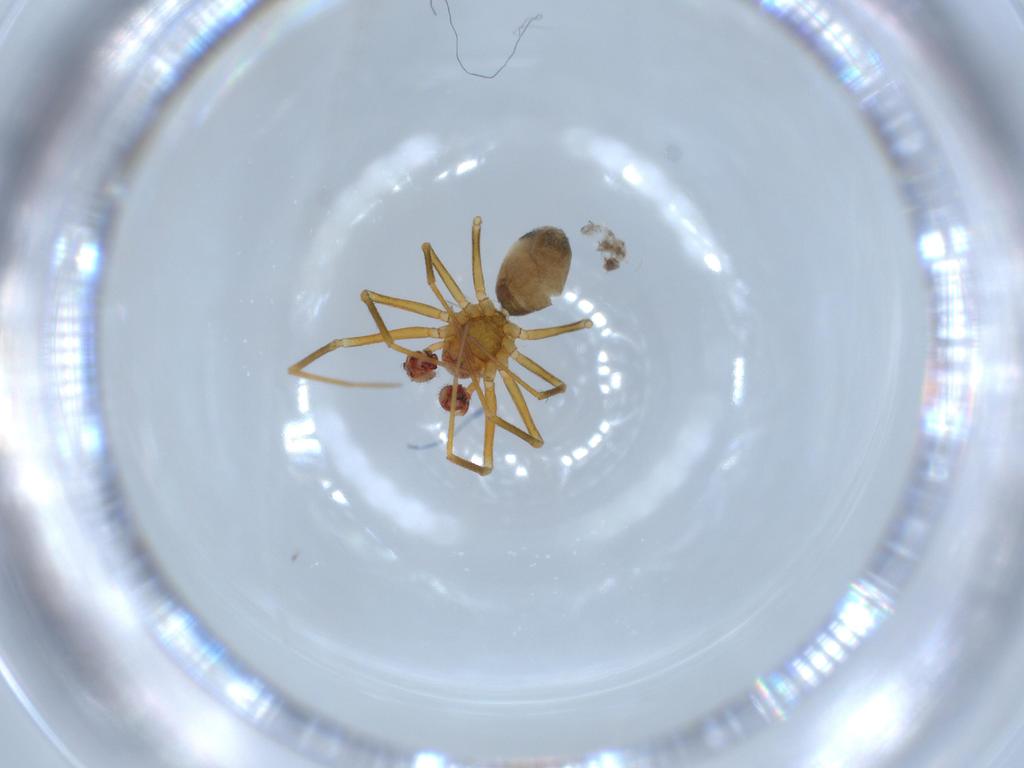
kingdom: Animalia
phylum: Arthropoda
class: Arachnida
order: Araneae
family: Linyphiidae
